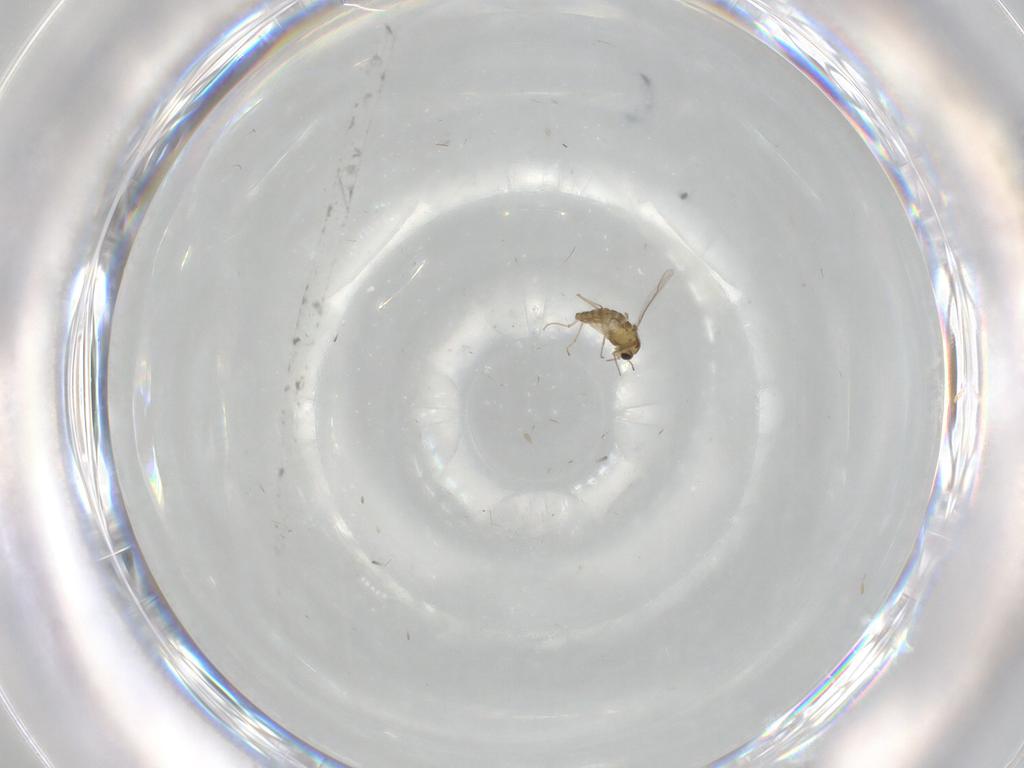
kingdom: Animalia
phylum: Arthropoda
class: Insecta
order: Diptera
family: Chironomidae
